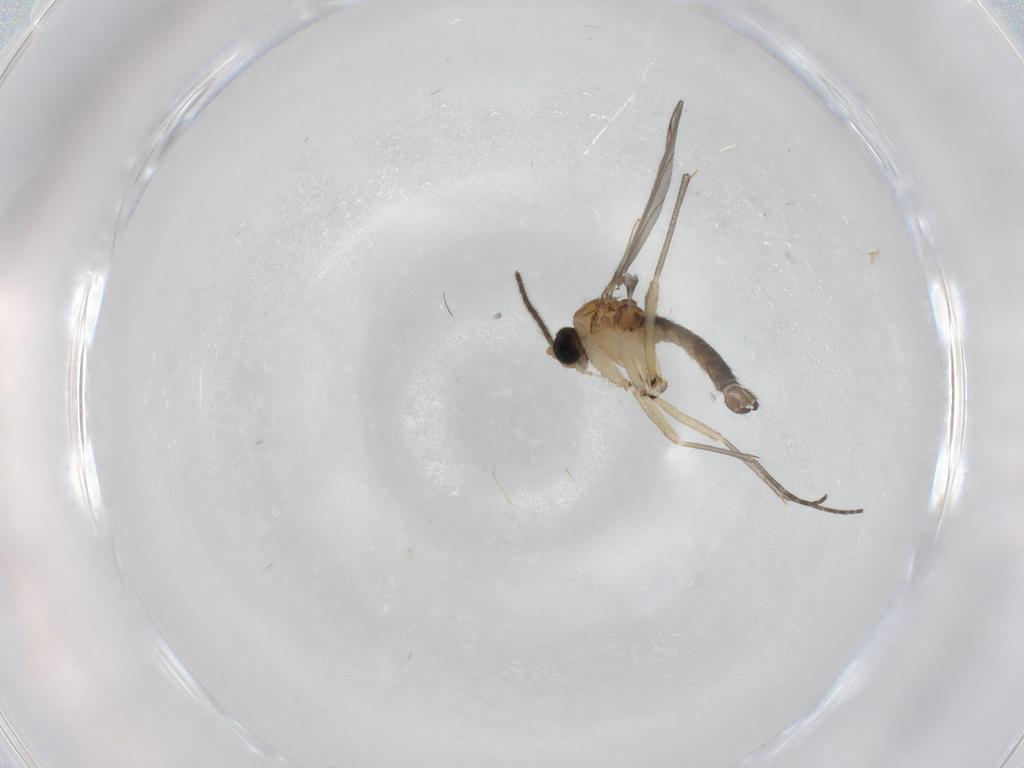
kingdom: Animalia
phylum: Arthropoda
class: Insecta
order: Diptera
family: Sciaridae
